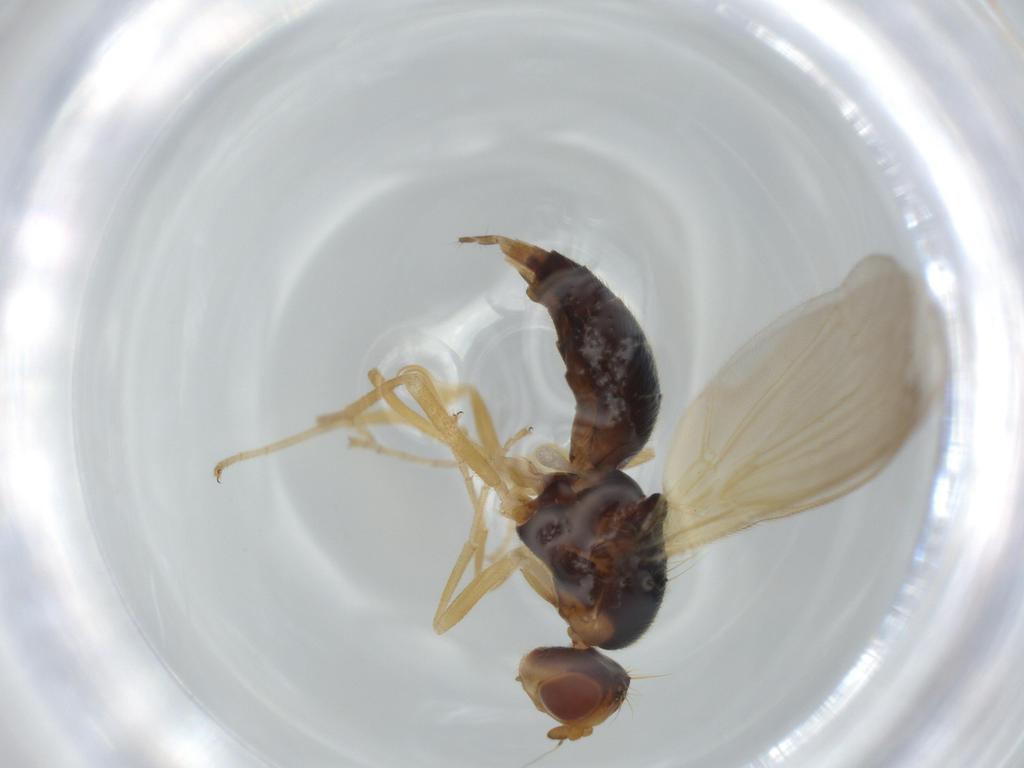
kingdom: Animalia
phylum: Arthropoda
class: Insecta
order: Diptera
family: Psilidae
